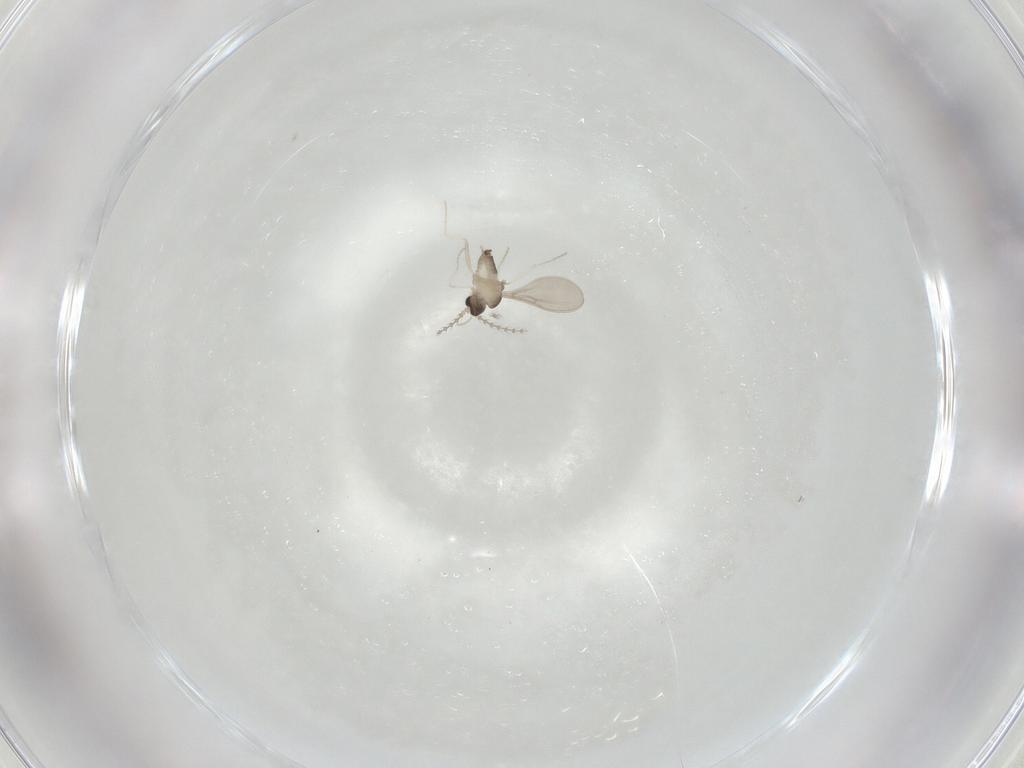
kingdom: Animalia
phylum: Arthropoda
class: Insecta
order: Diptera
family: Cecidomyiidae
